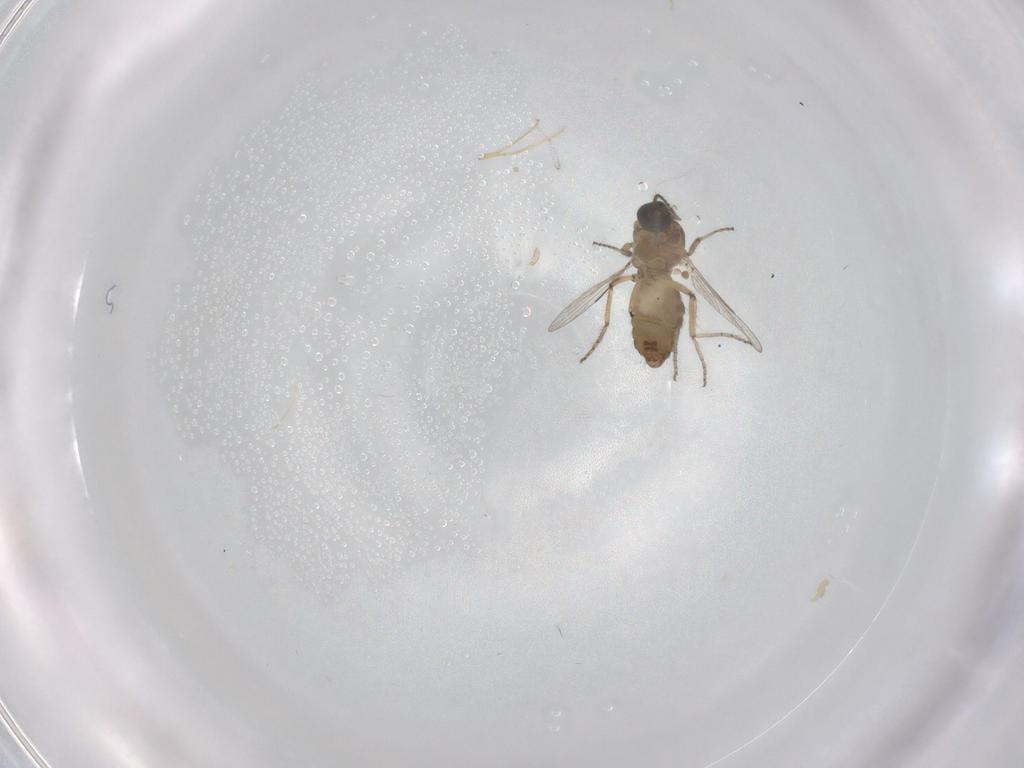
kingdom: Animalia
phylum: Arthropoda
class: Insecta
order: Diptera
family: Ceratopogonidae
